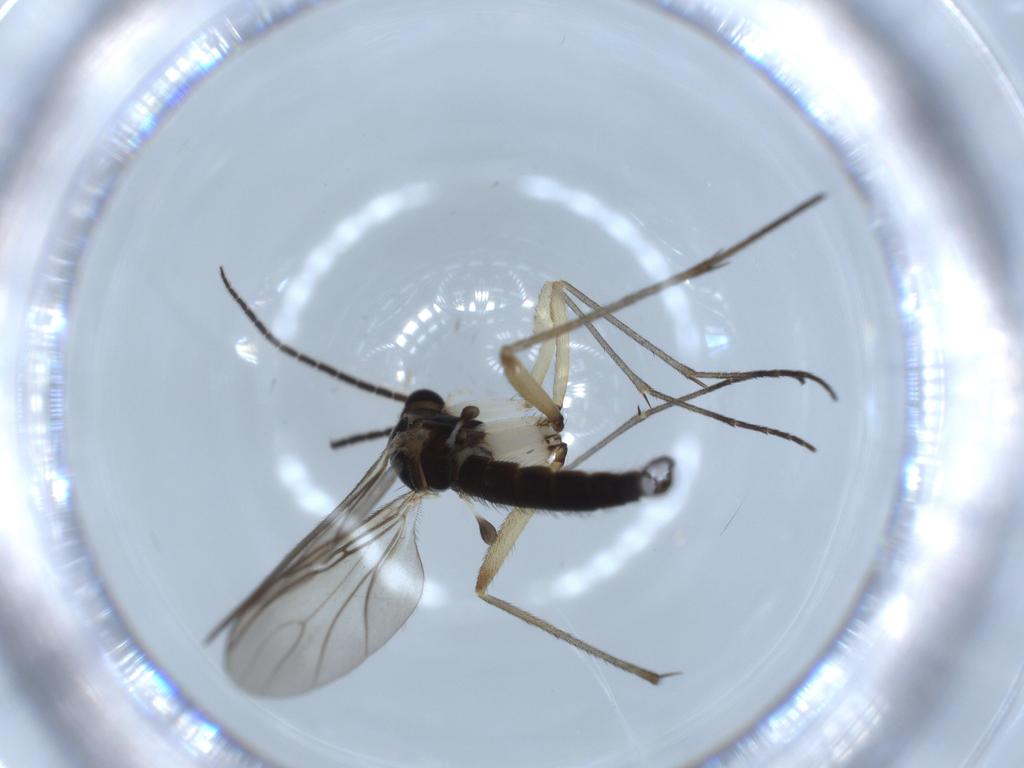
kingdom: Animalia
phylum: Arthropoda
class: Insecta
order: Diptera
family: Sciaridae
